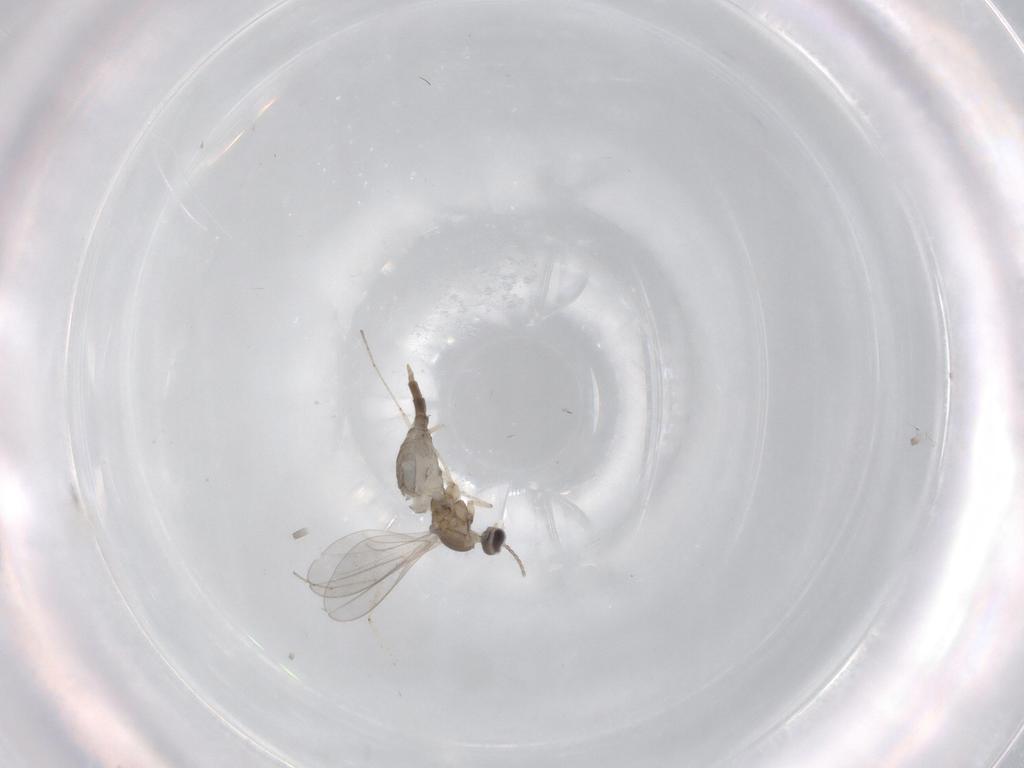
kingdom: Animalia
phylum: Arthropoda
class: Insecta
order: Diptera
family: Cecidomyiidae
